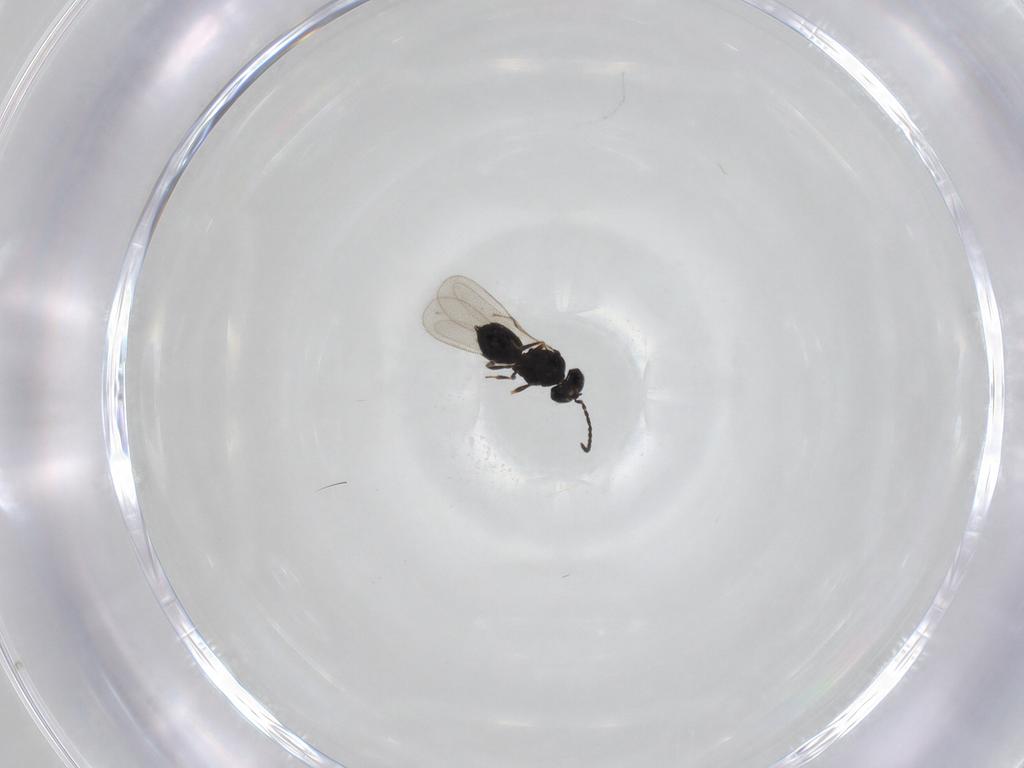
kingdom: Animalia
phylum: Arthropoda
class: Insecta
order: Hymenoptera
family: Scelionidae
